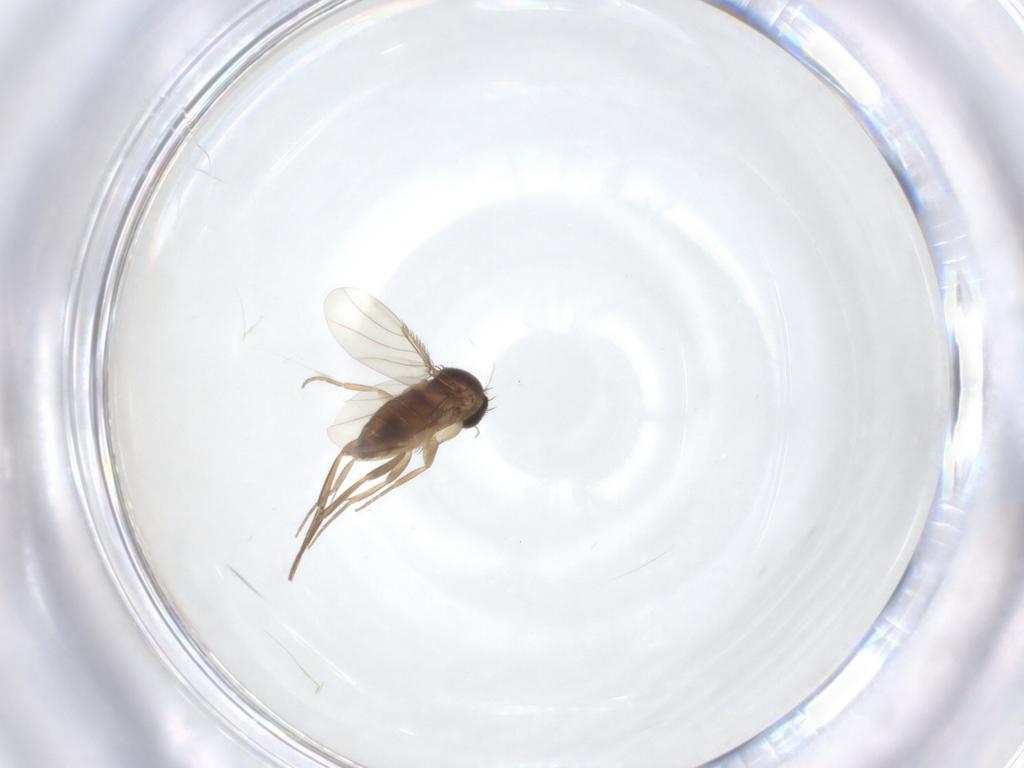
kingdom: Animalia
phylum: Arthropoda
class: Insecta
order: Diptera
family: Phoridae
